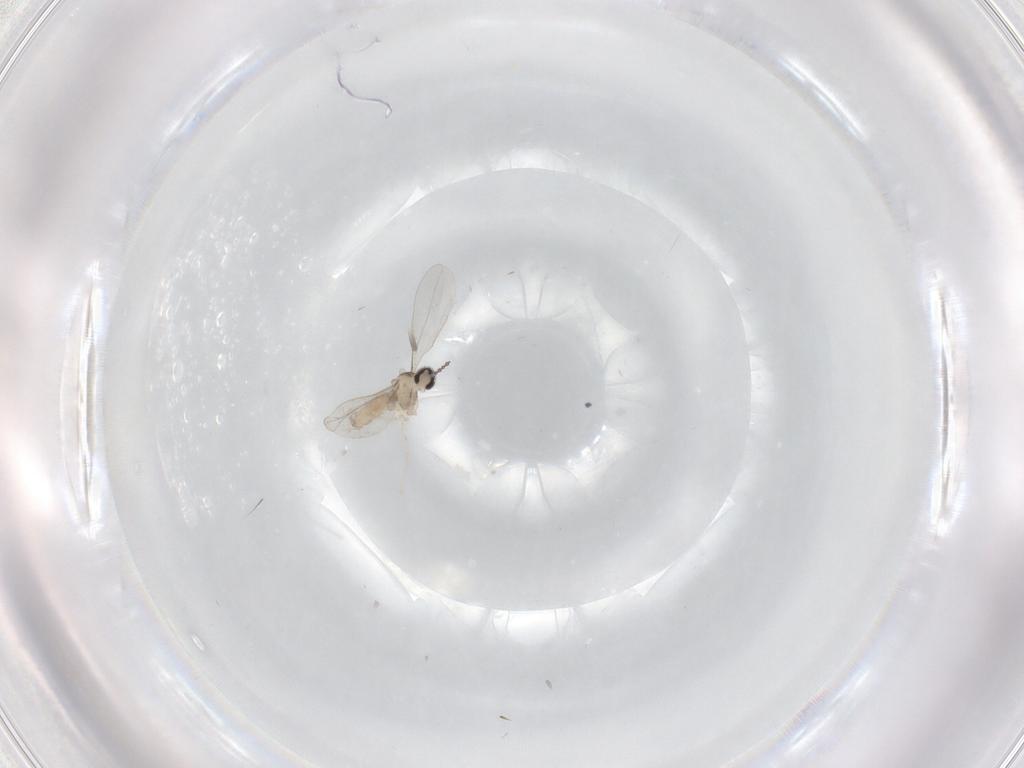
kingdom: Animalia
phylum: Arthropoda
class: Insecta
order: Diptera
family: Cecidomyiidae
